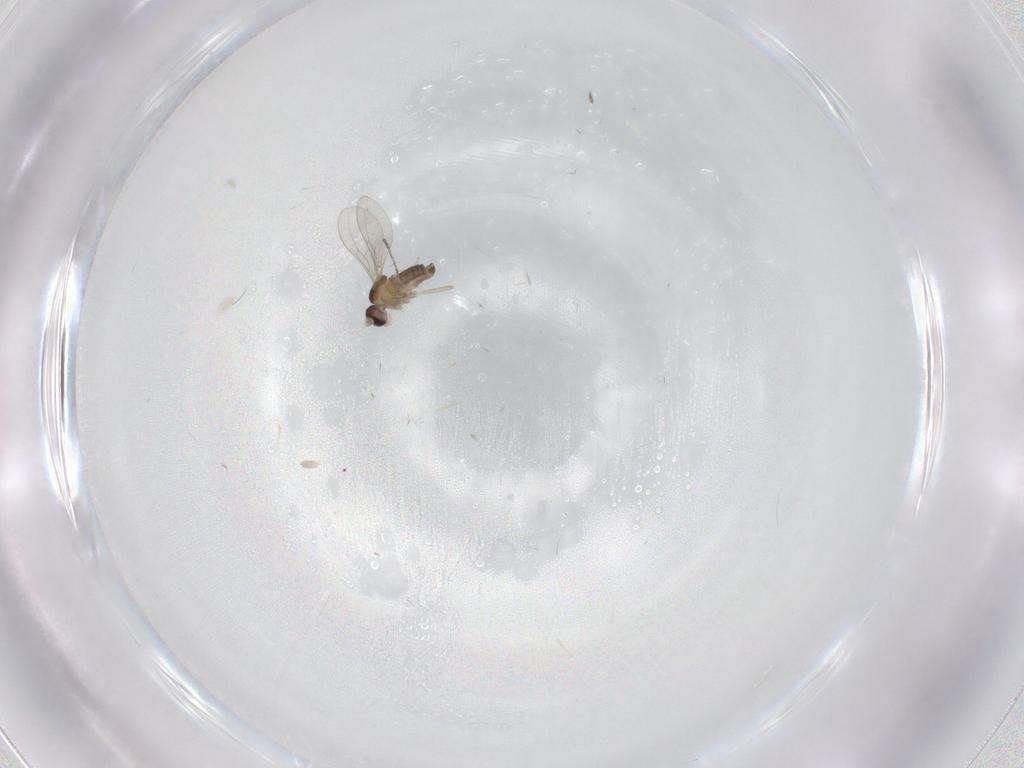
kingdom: Animalia
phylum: Arthropoda
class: Insecta
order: Diptera
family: Cecidomyiidae
